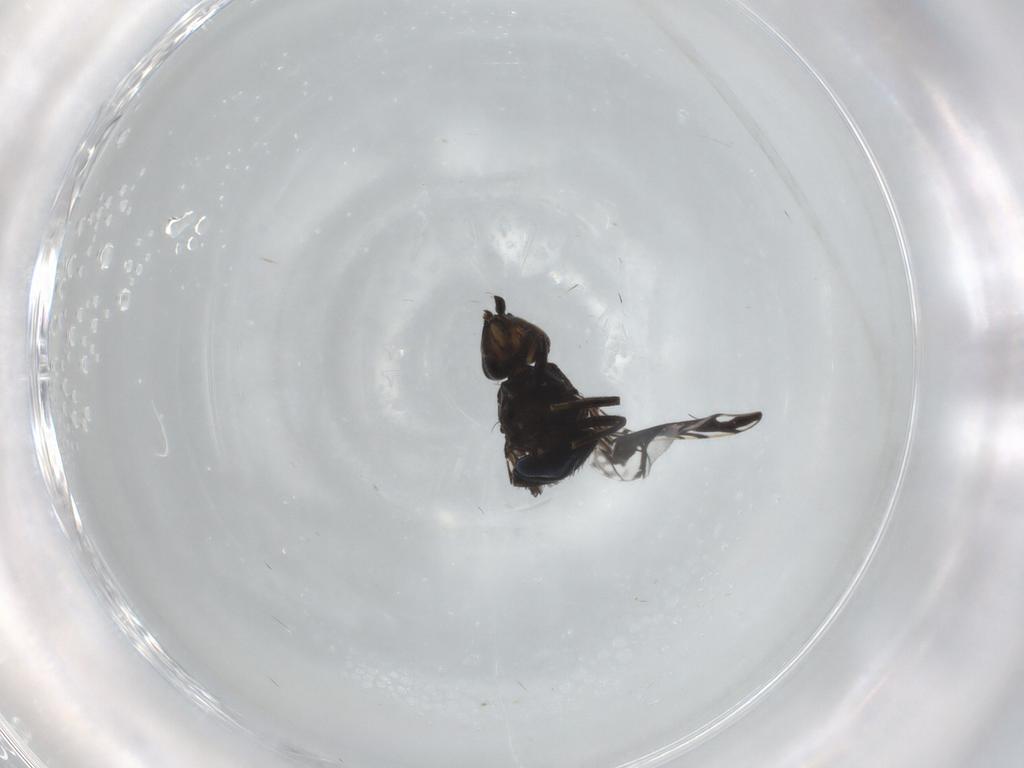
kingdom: Animalia
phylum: Arthropoda
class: Insecta
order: Diptera
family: Tephritidae
